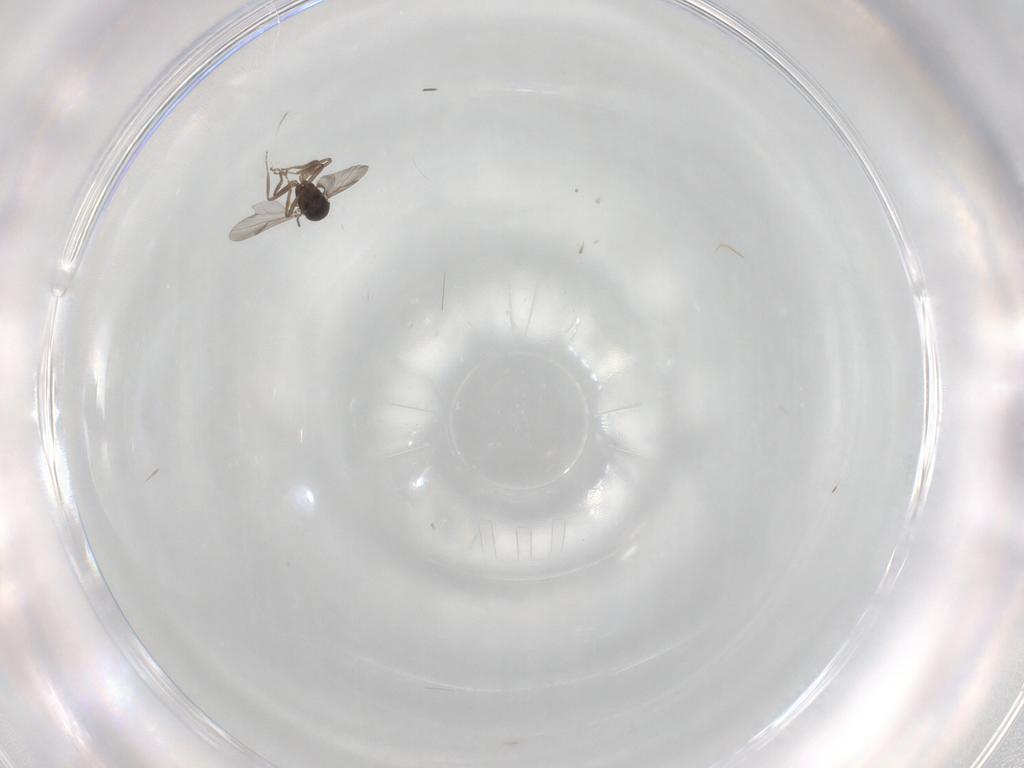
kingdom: Animalia
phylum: Arthropoda
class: Insecta
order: Diptera
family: Ceratopogonidae
